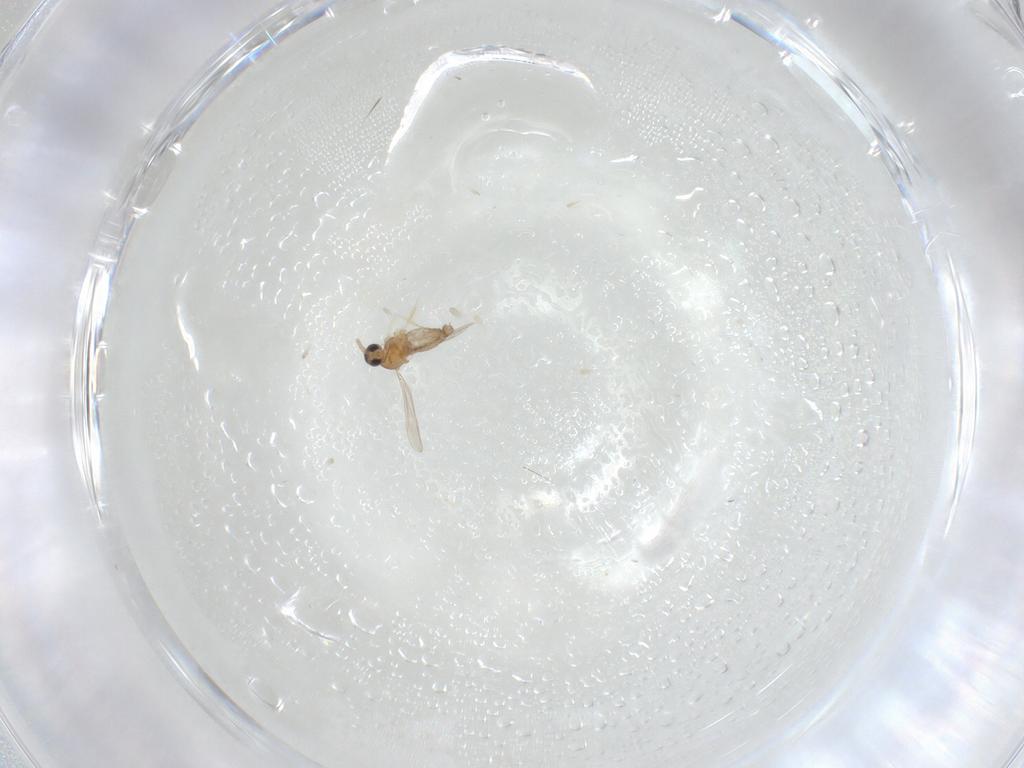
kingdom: Animalia
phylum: Arthropoda
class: Insecta
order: Diptera
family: Cecidomyiidae
